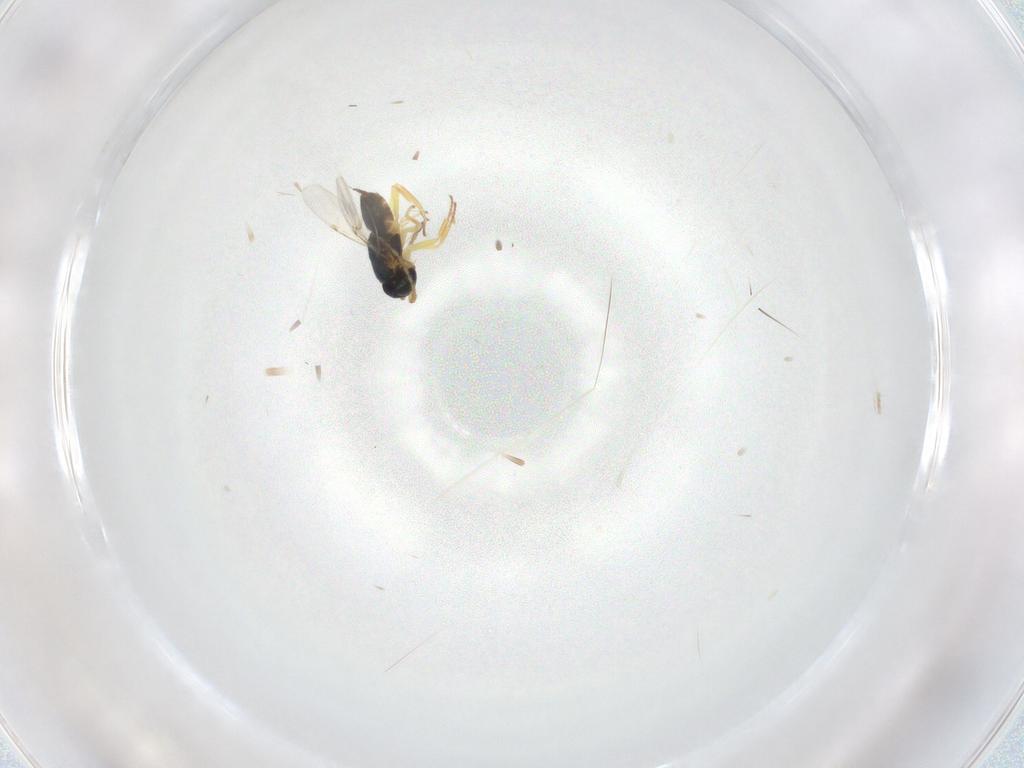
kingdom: Animalia
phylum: Arthropoda
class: Insecta
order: Hymenoptera
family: Diapriidae
